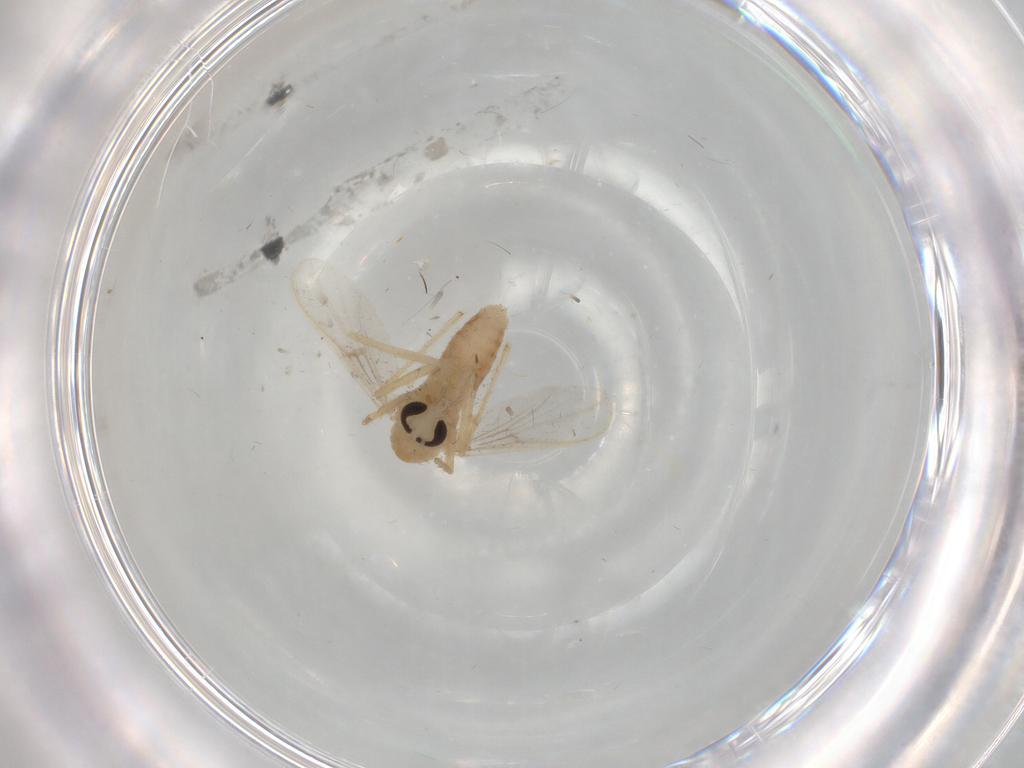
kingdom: Animalia
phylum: Arthropoda
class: Insecta
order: Diptera
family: Chironomidae
